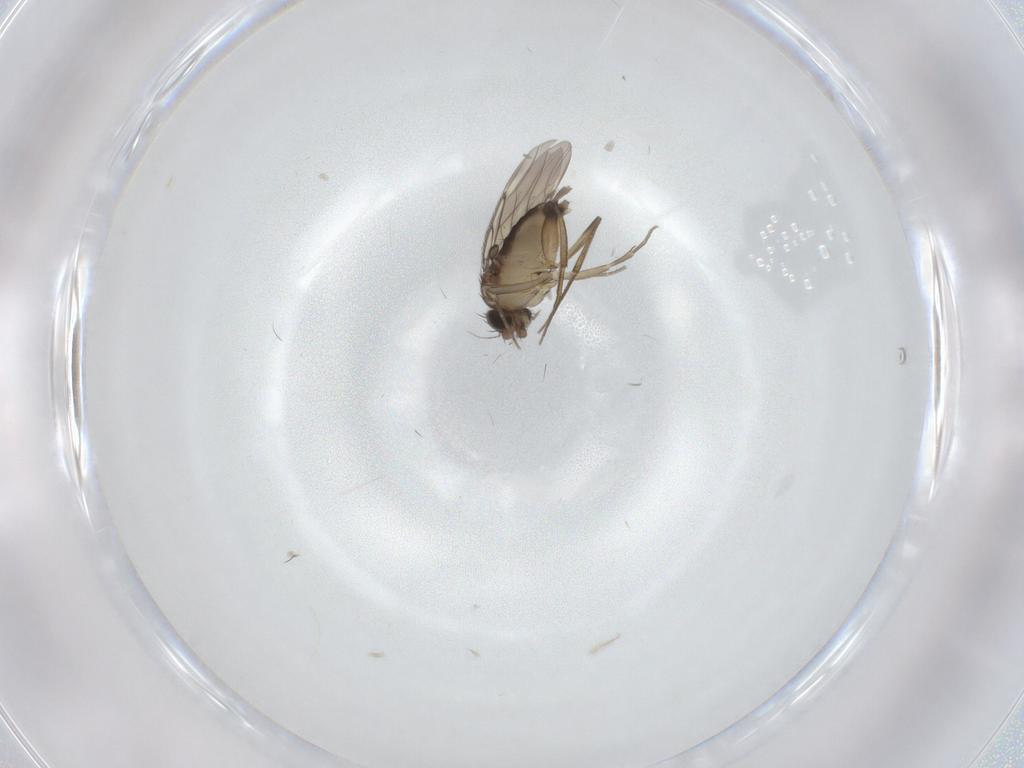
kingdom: Animalia
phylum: Arthropoda
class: Insecta
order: Diptera
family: Phoridae
